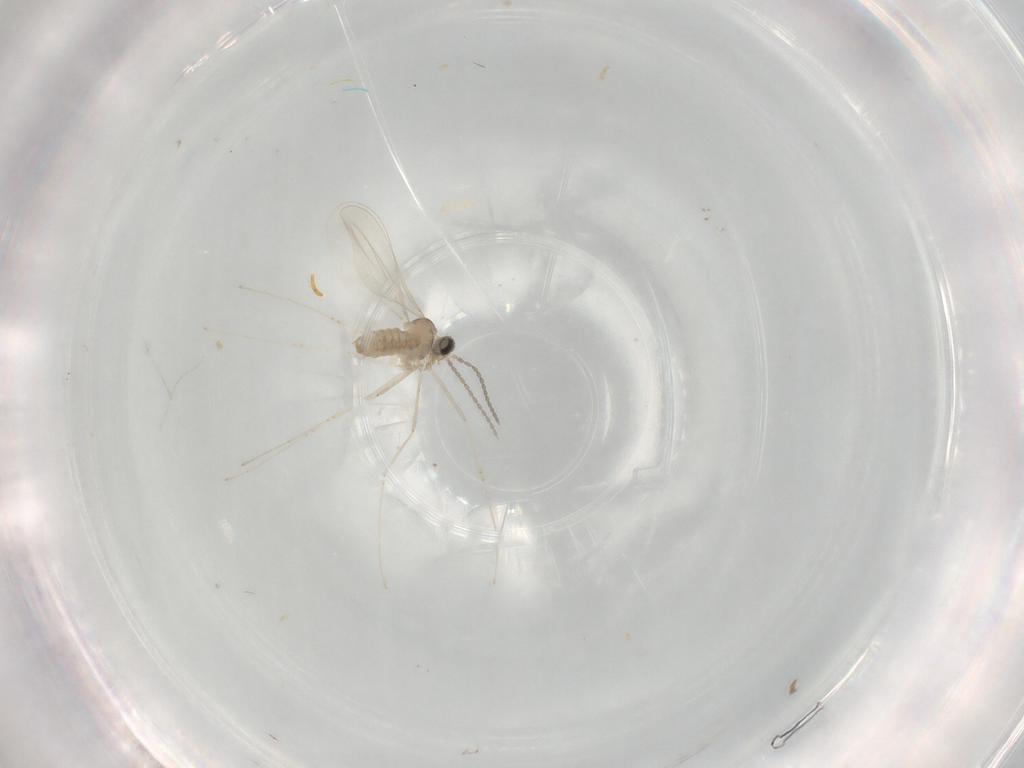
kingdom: Animalia
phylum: Arthropoda
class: Insecta
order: Diptera
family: Cecidomyiidae
